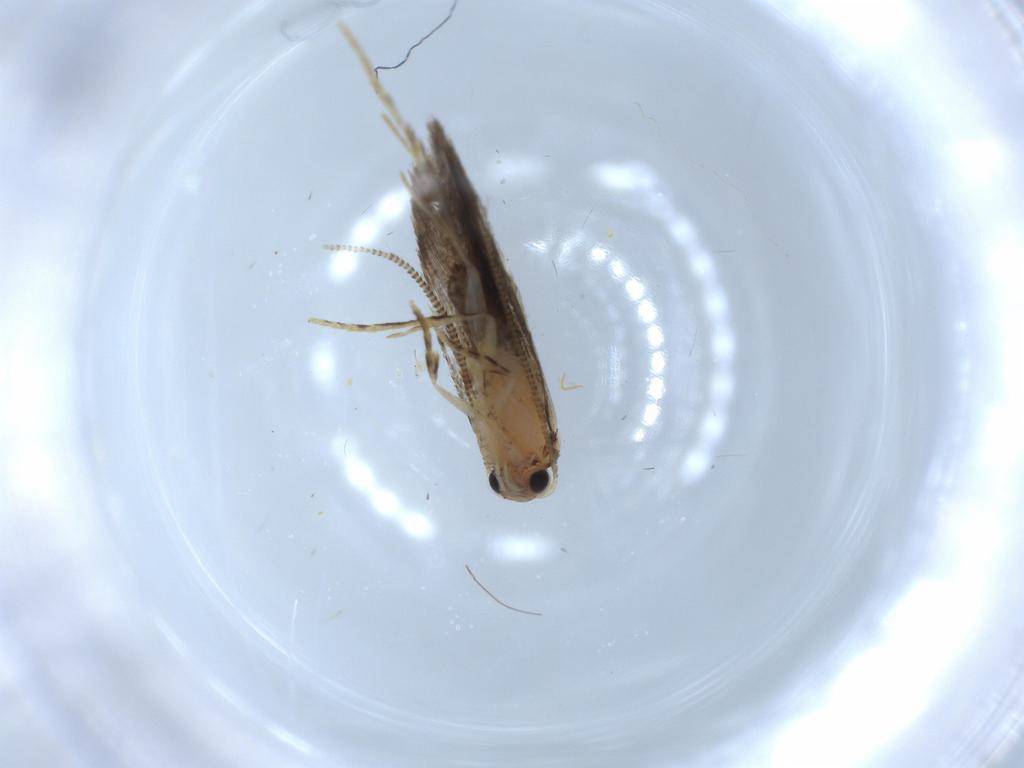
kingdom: Animalia
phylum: Arthropoda
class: Insecta
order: Lepidoptera
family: Tineidae
